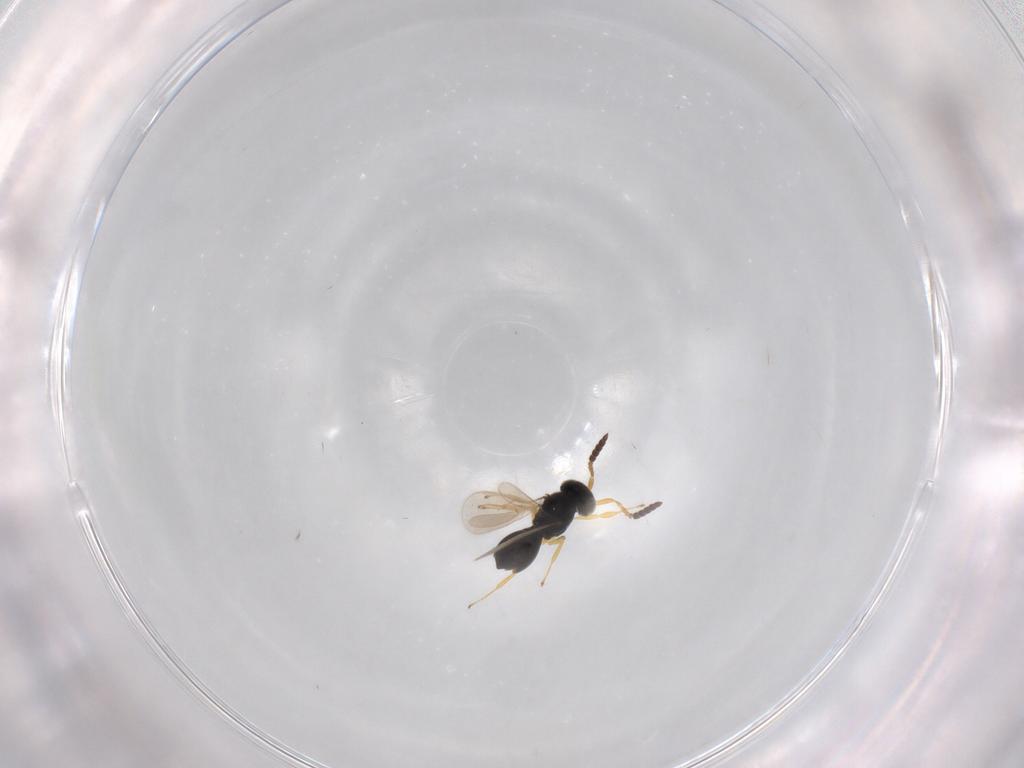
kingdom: Animalia
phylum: Arthropoda
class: Insecta
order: Hymenoptera
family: Scelionidae
